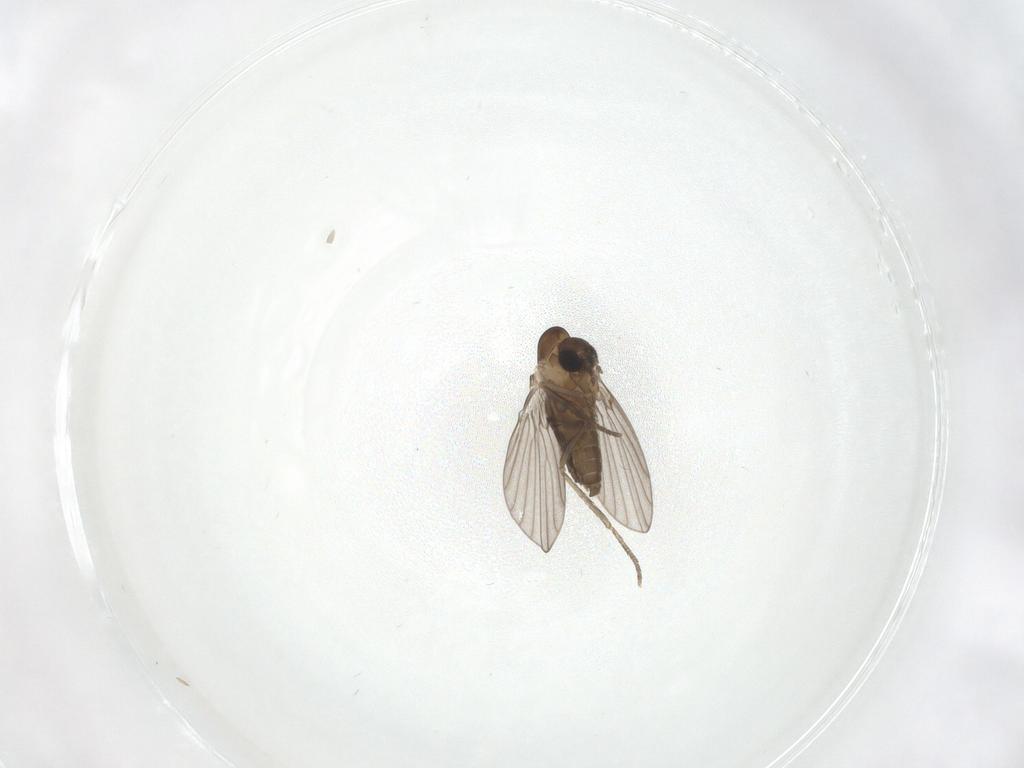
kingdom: Animalia
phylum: Arthropoda
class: Insecta
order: Diptera
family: Psychodidae
